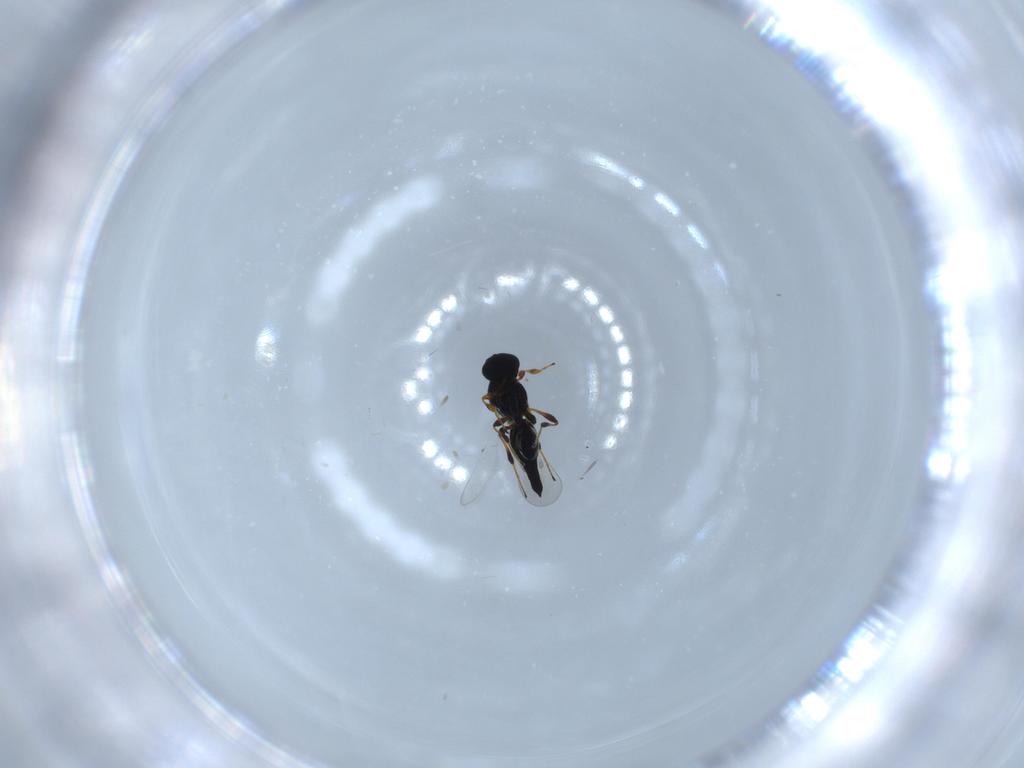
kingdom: Animalia
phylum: Arthropoda
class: Insecta
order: Hymenoptera
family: Platygastridae
